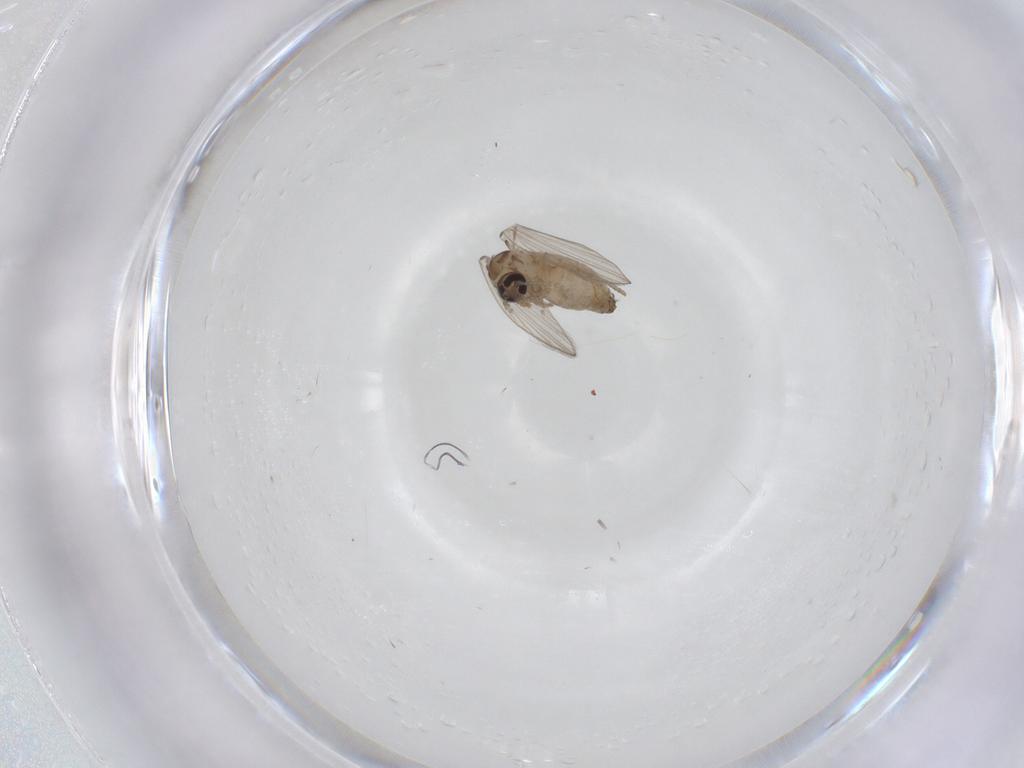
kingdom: Animalia
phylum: Arthropoda
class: Insecta
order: Diptera
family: Psychodidae
